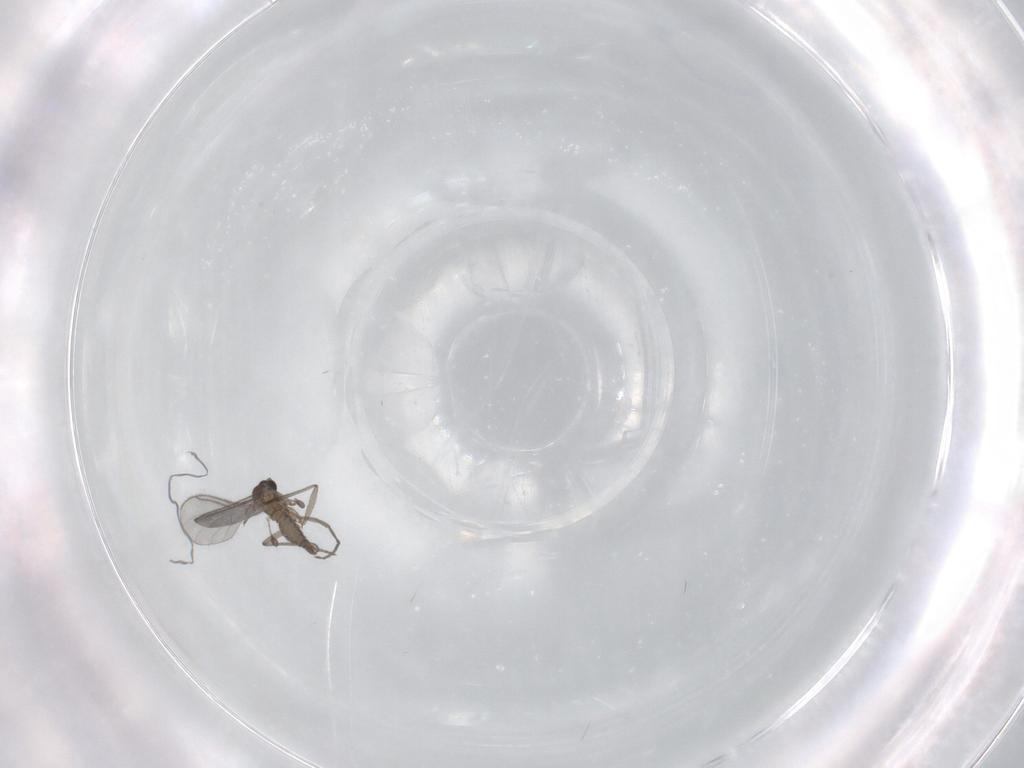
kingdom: Animalia
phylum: Arthropoda
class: Insecta
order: Diptera
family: Sciaridae
